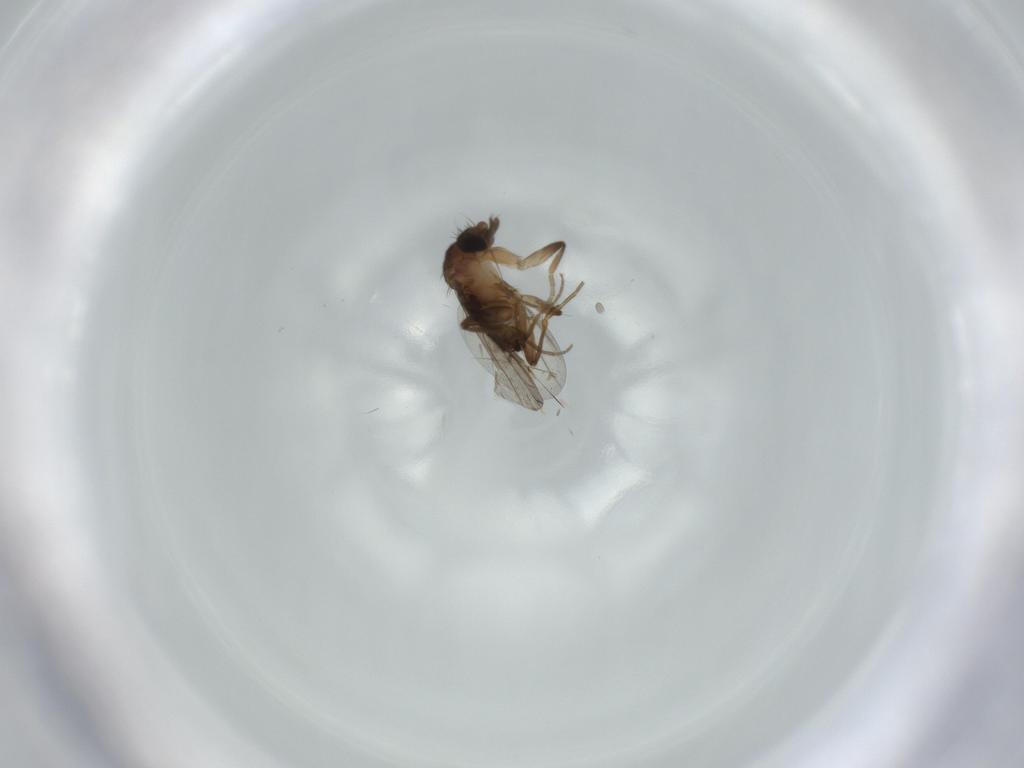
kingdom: Animalia
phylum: Arthropoda
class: Insecta
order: Diptera
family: Phoridae
